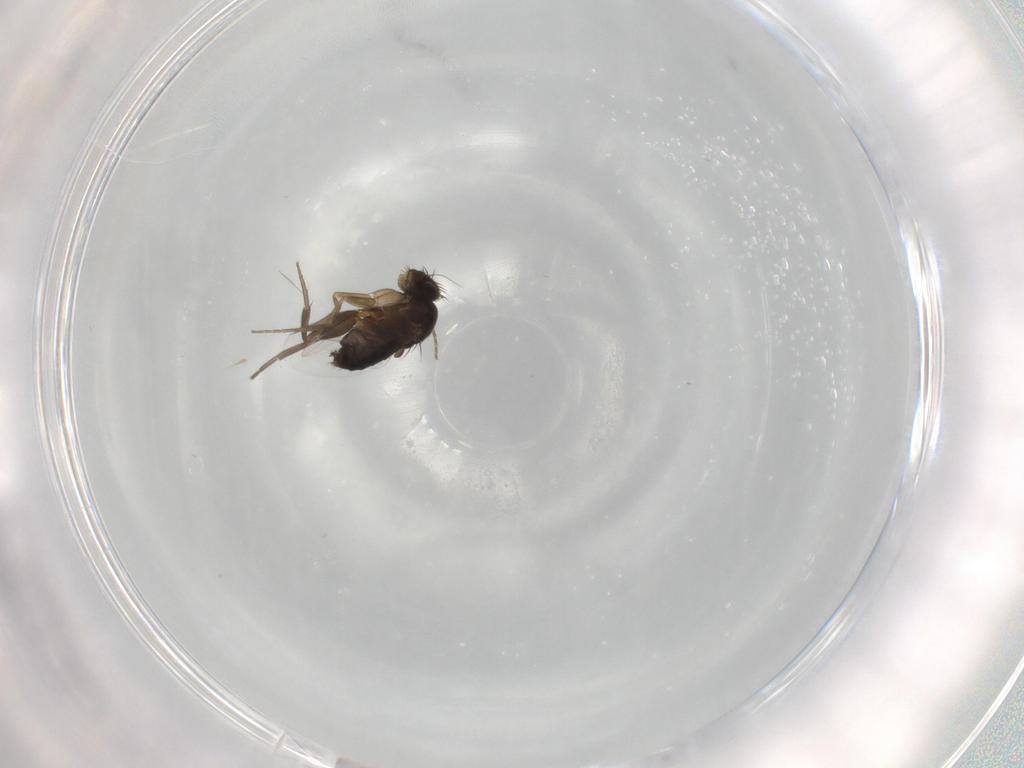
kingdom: Animalia
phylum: Arthropoda
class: Insecta
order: Diptera
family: Phoridae
